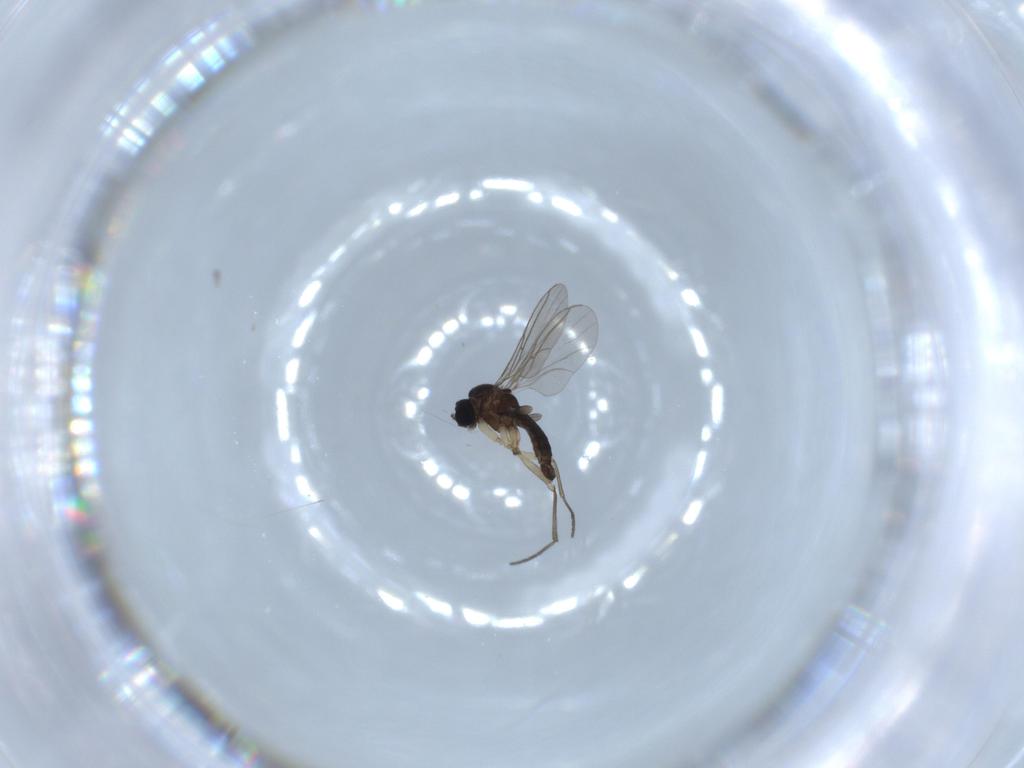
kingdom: Animalia
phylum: Arthropoda
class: Insecta
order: Diptera
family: Sciaridae
